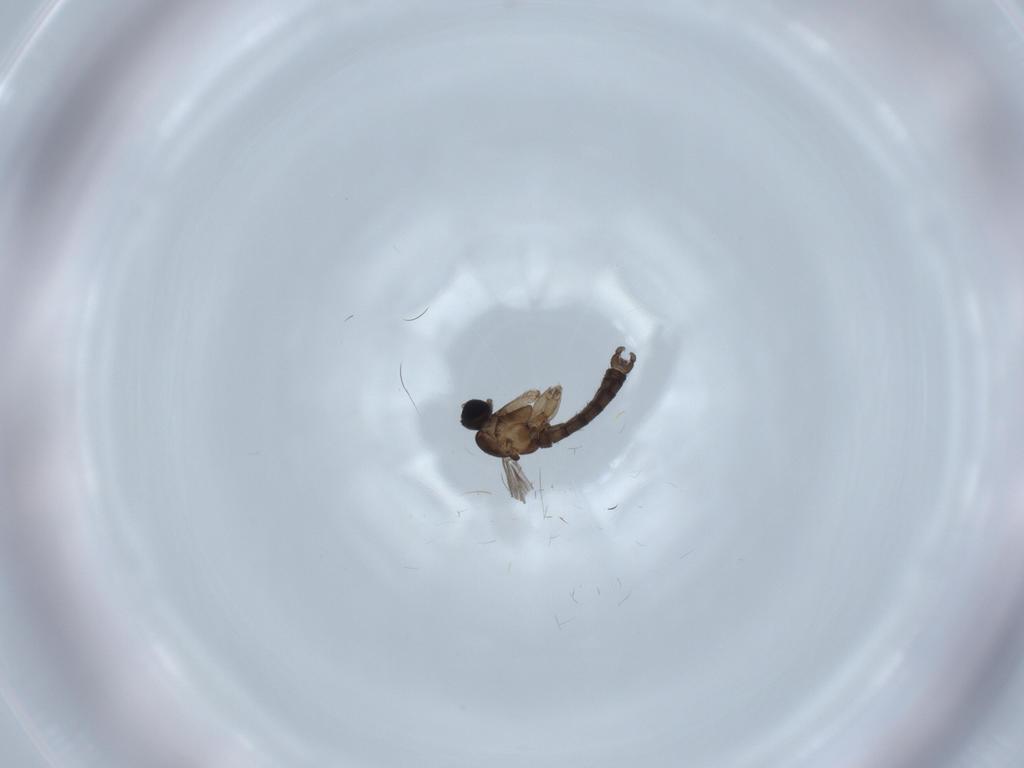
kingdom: Animalia
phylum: Arthropoda
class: Insecta
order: Diptera
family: Sciaridae
